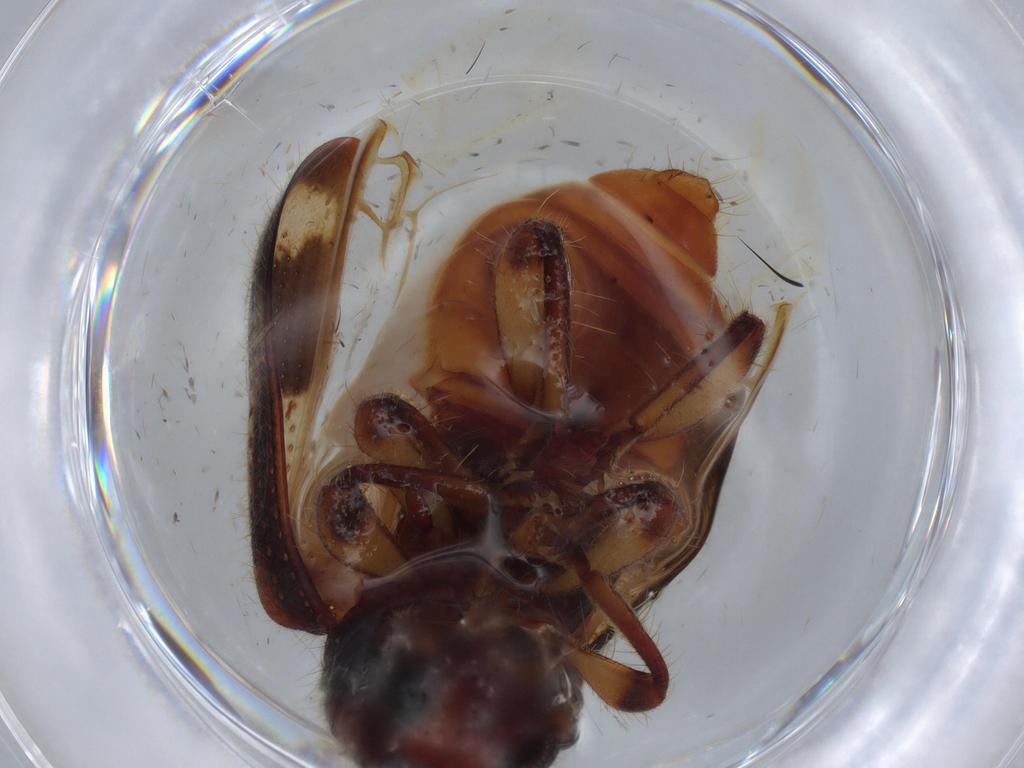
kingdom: Animalia
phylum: Arthropoda
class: Insecta
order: Coleoptera
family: Cleridae
